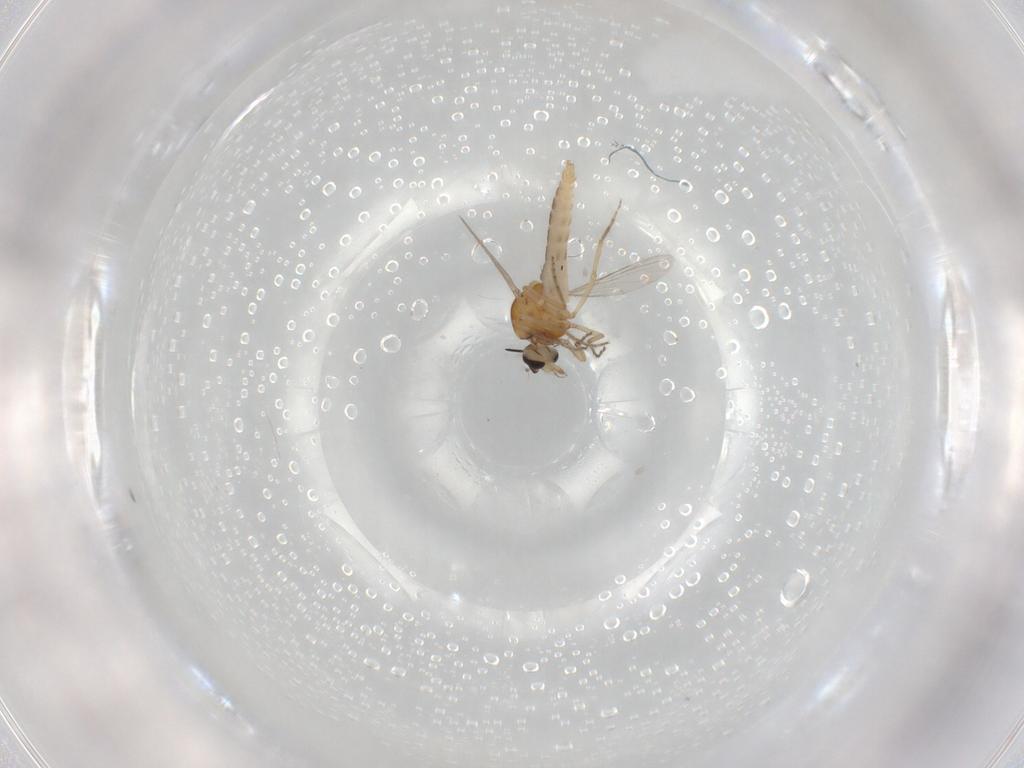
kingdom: Animalia
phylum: Arthropoda
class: Insecta
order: Diptera
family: Ceratopogonidae
